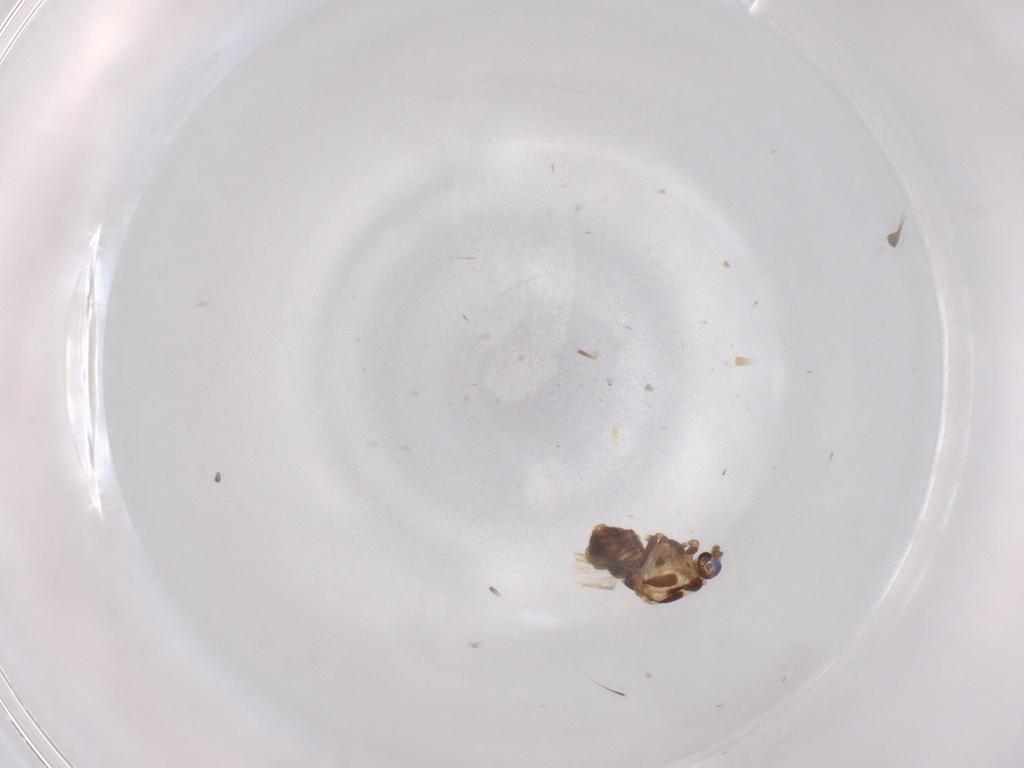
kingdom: Animalia
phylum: Arthropoda
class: Insecta
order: Diptera
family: Chironomidae
